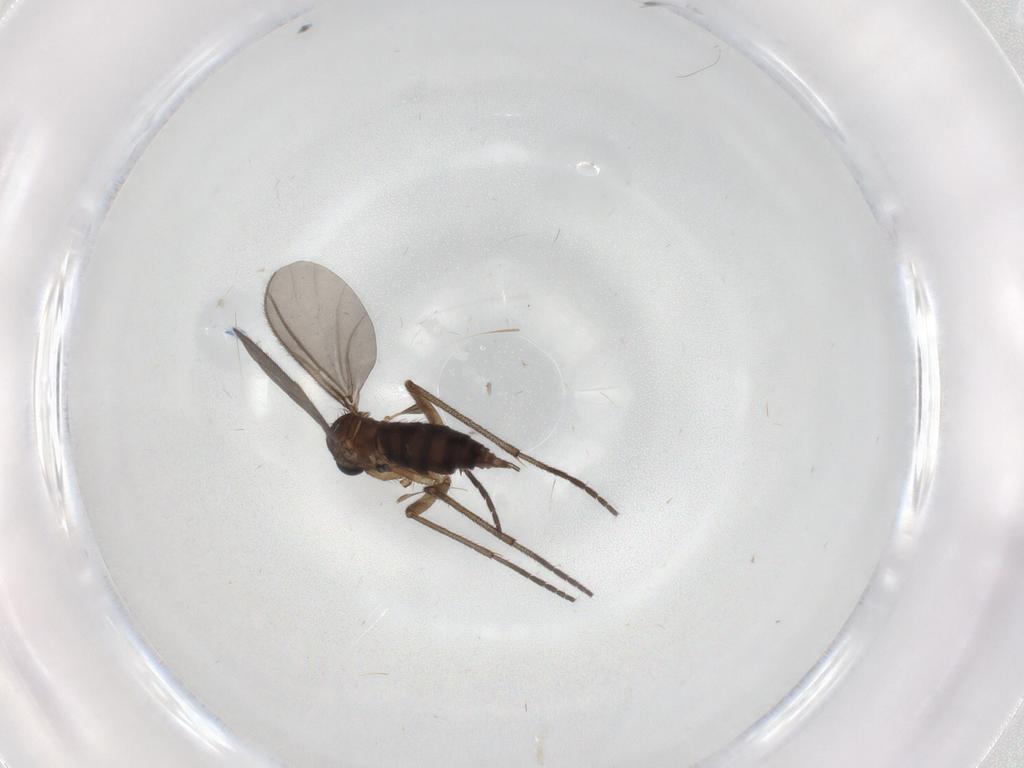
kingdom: Animalia
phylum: Arthropoda
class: Insecta
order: Diptera
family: Sciaridae
